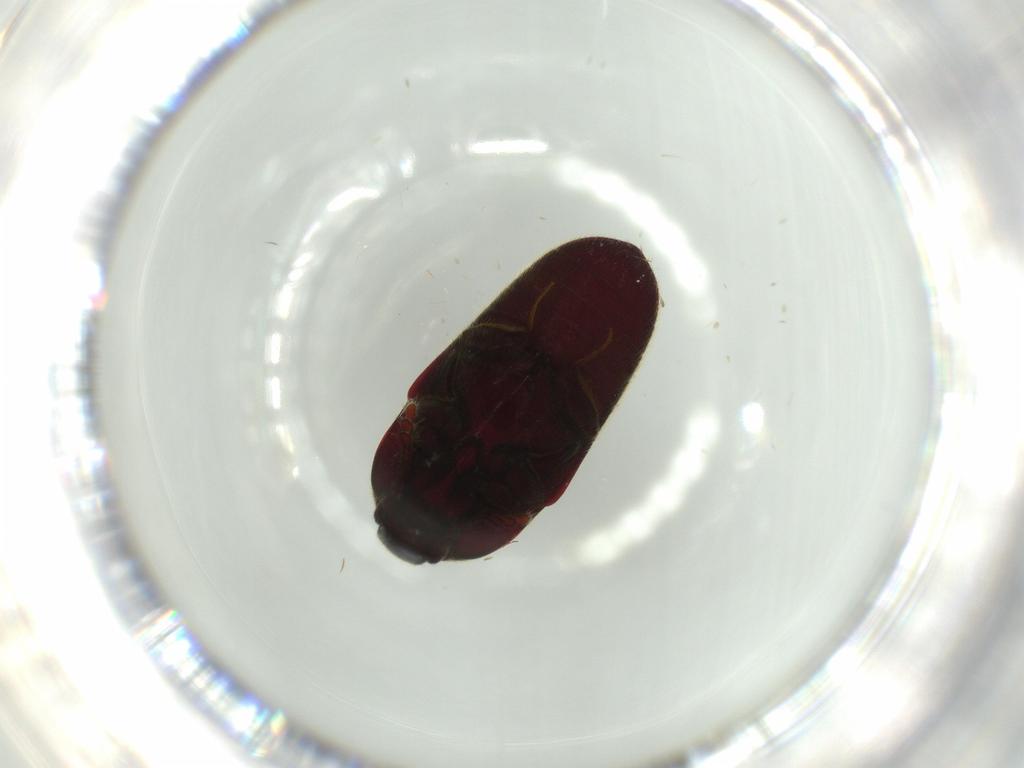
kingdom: Animalia
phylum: Arthropoda
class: Insecta
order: Coleoptera
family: Throscidae
